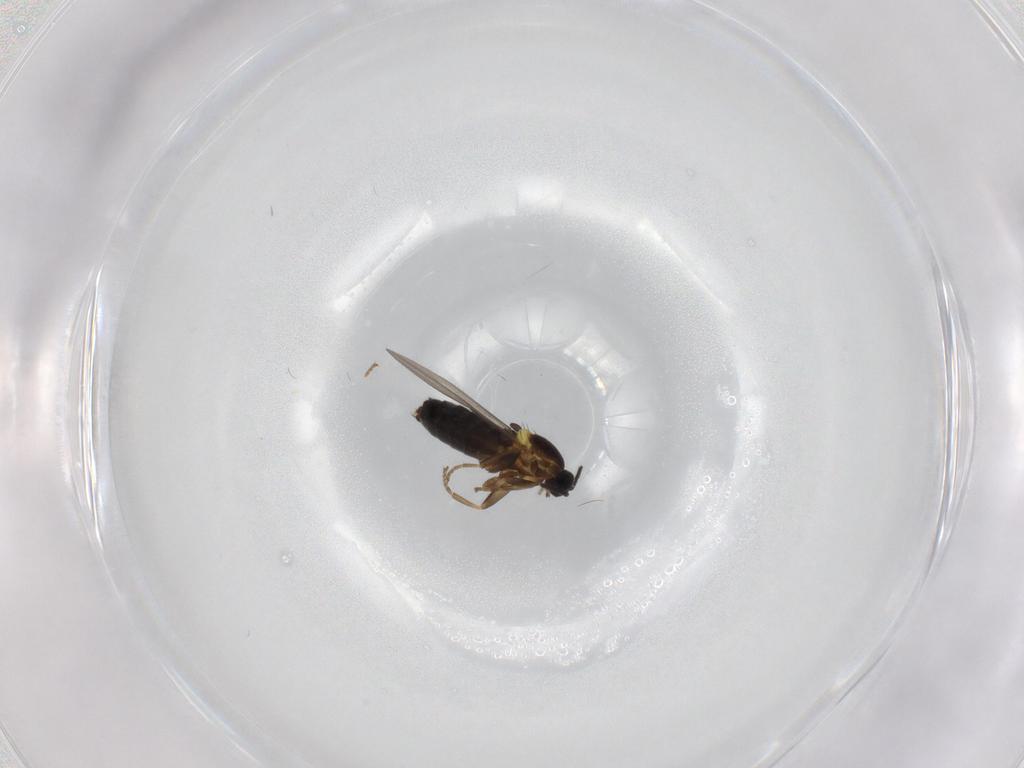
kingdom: Animalia
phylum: Arthropoda
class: Insecta
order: Diptera
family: Scatopsidae
